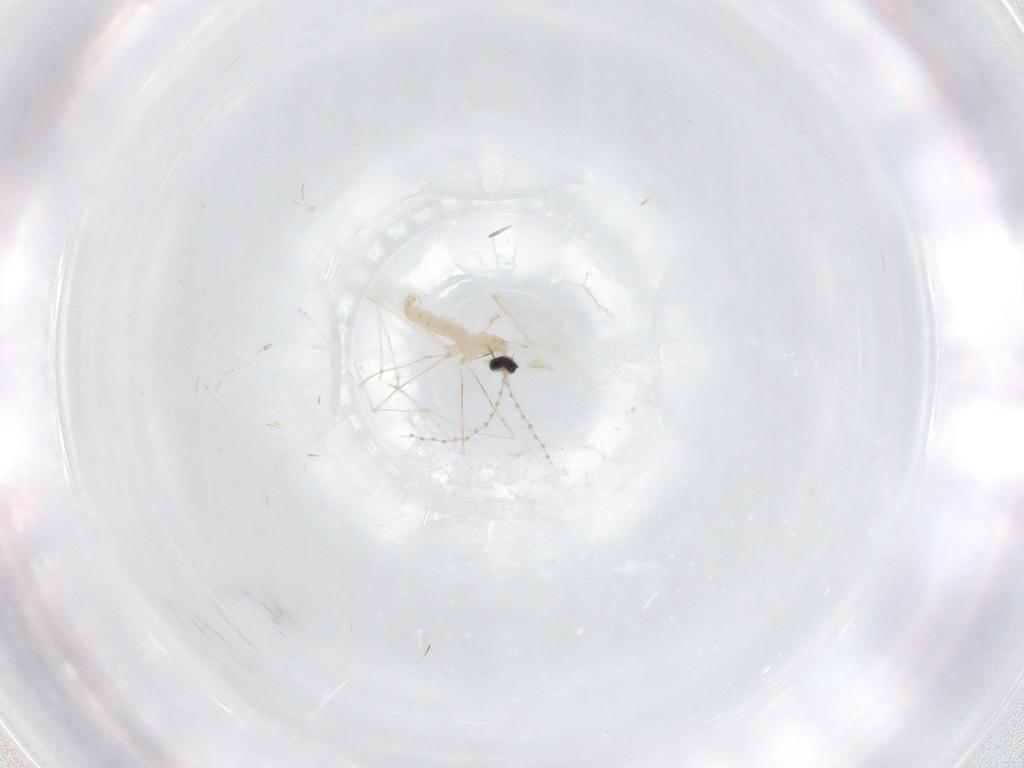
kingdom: Animalia
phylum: Arthropoda
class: Insecta
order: Diptera
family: Cecidomyiidae
